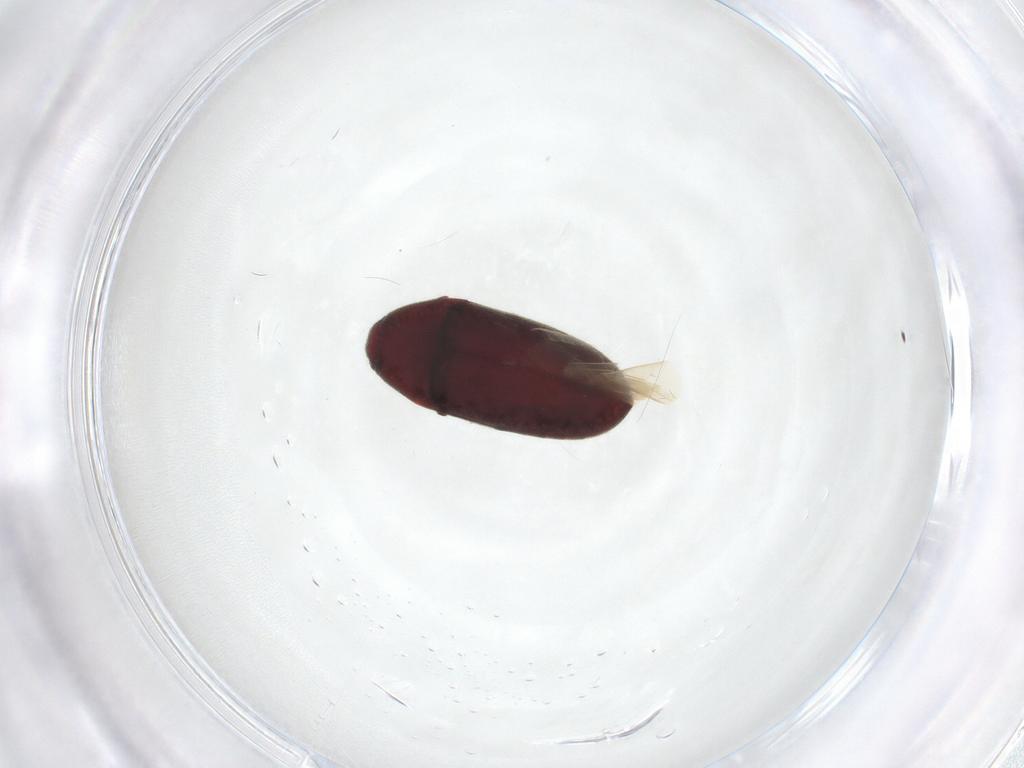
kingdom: Animalia
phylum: Arthropoda
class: Insecta
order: Coleoptera
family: Throscidae
